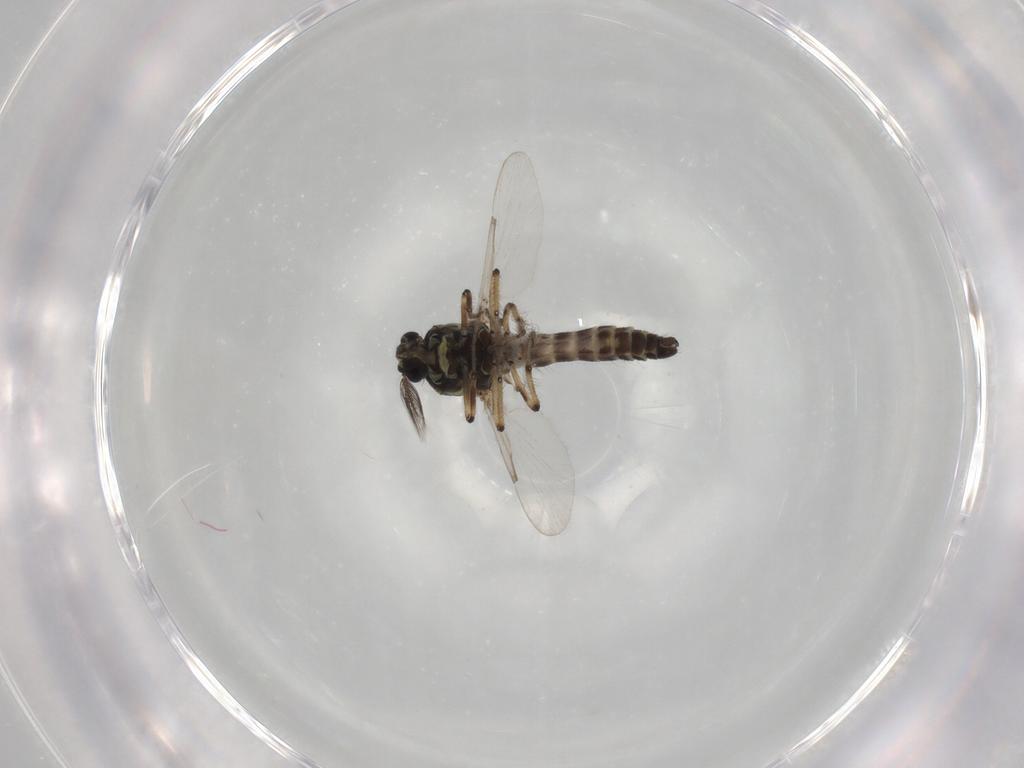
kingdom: Animalia
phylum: Arthropoda
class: Insecta
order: Diptera
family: Ceratopogonidae
